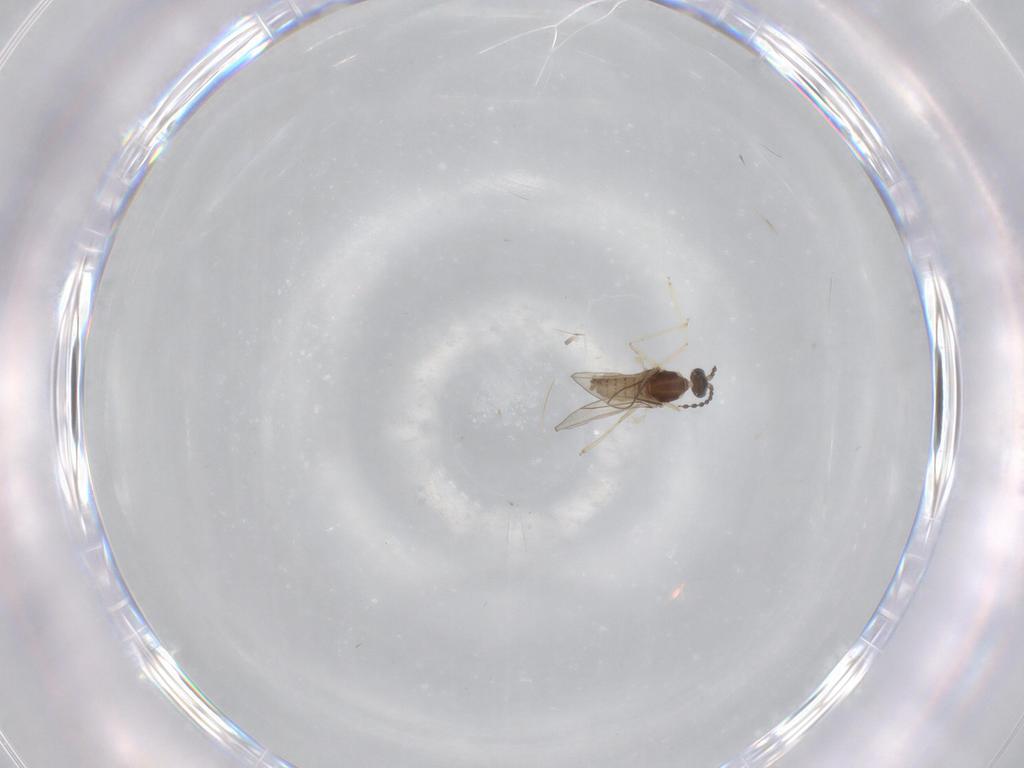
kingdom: Animalia
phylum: Arthropoda
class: Insecta
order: Diptera
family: Cecidomyiidae
